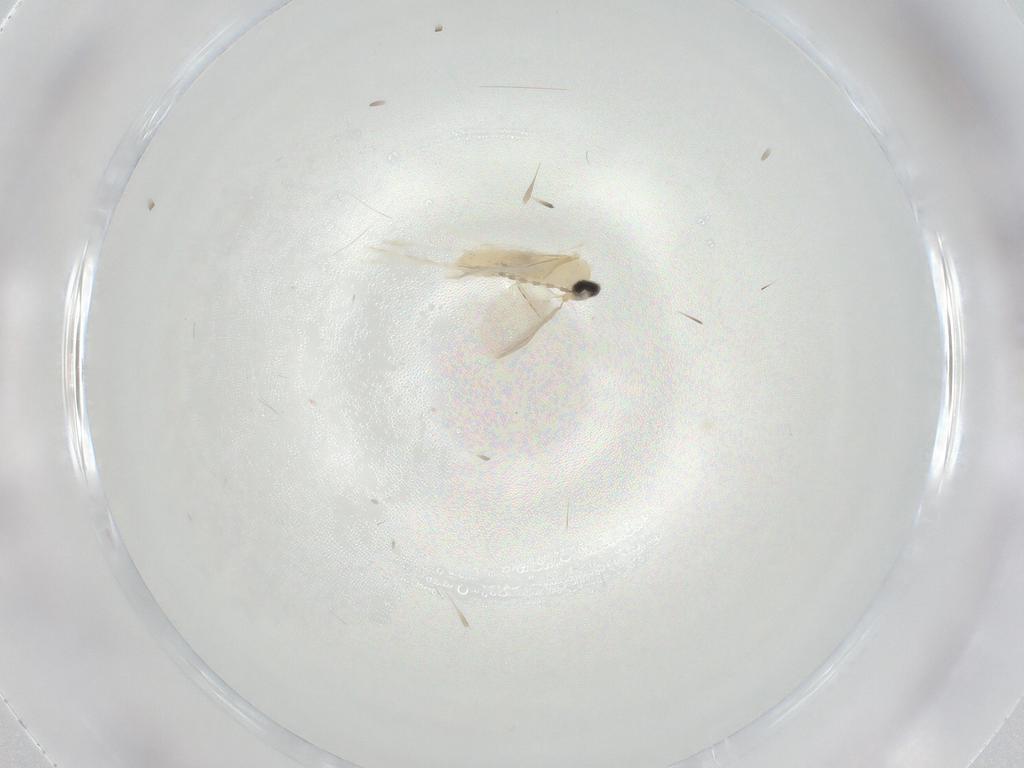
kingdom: Animalia
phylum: Arthropoda
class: Insecta
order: Diptera
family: Cecidomyiidae
